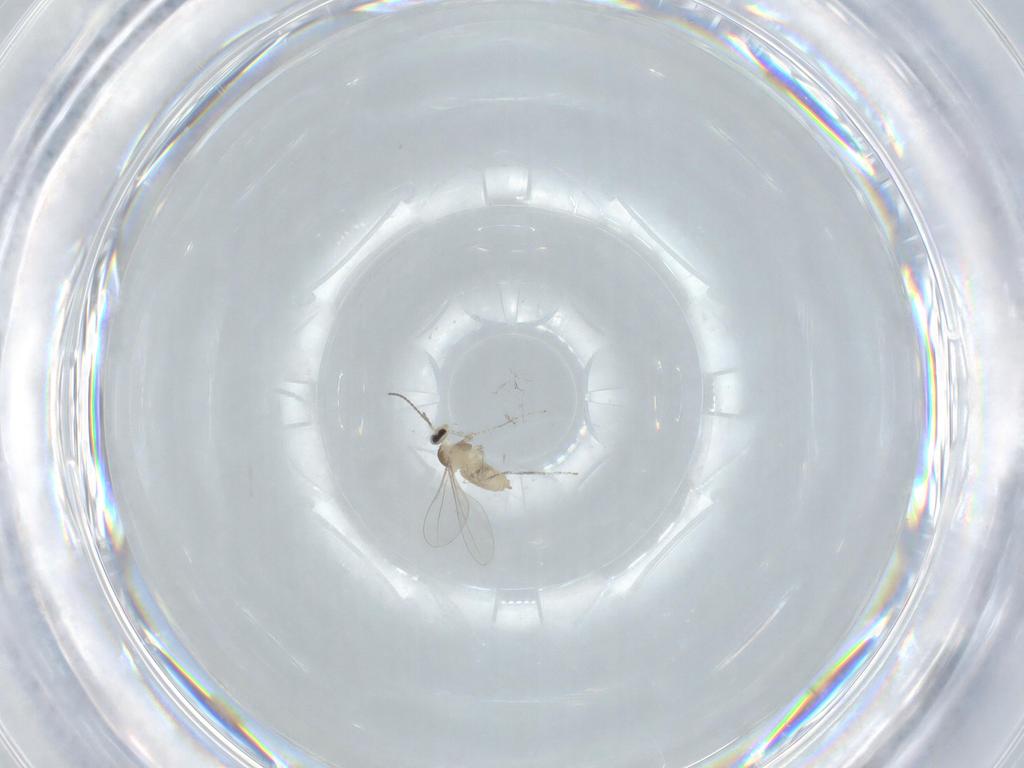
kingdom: Animalia
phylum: Arthropoda
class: Insecta
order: Diptera
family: Cecidomyiidae
